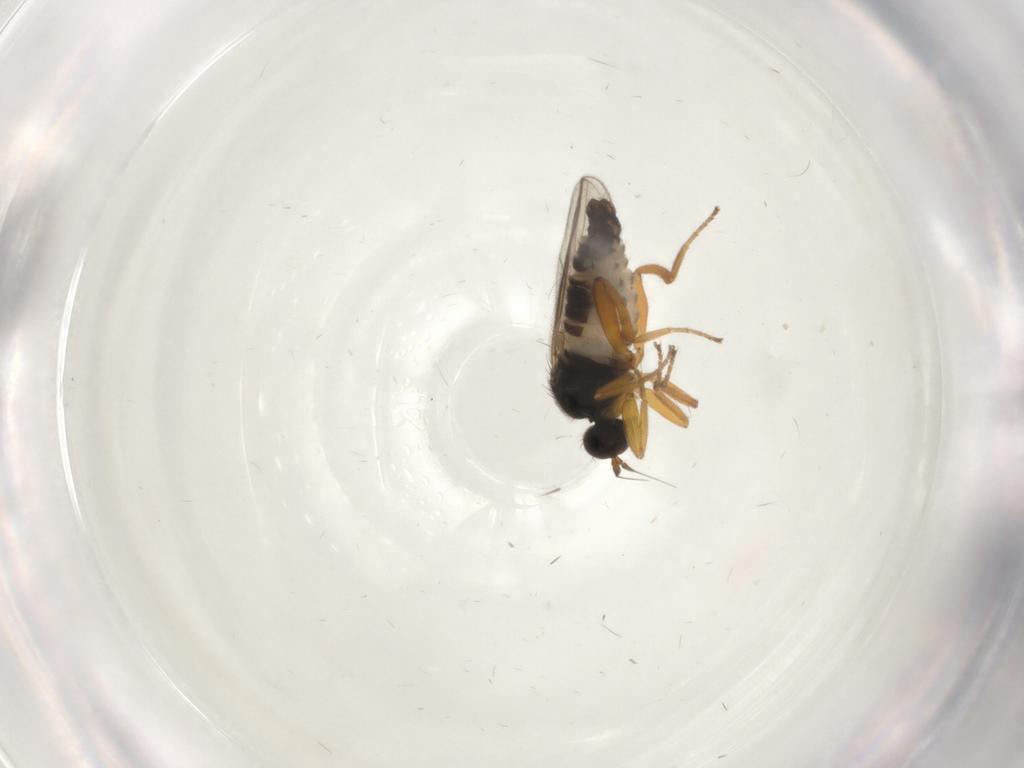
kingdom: Animalia
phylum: Arthropoda
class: Insecta
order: Diptera
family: Hybotidae
